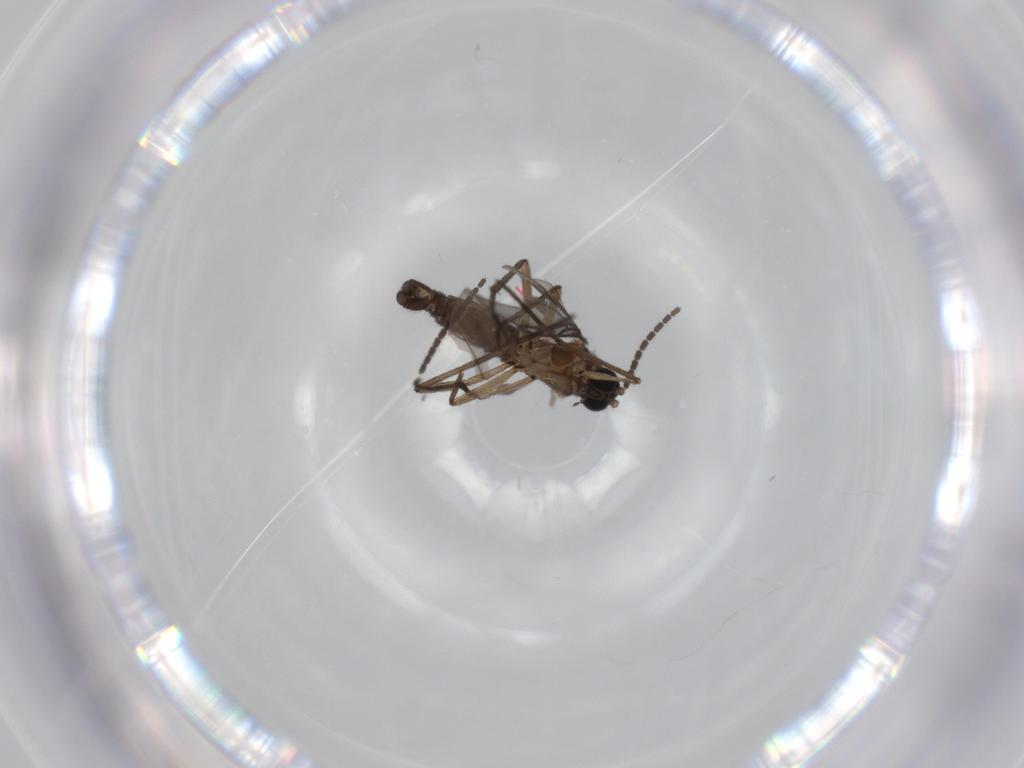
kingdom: Animalia
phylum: Arthropoda
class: Insecta
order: Diptera
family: Sciaridae
